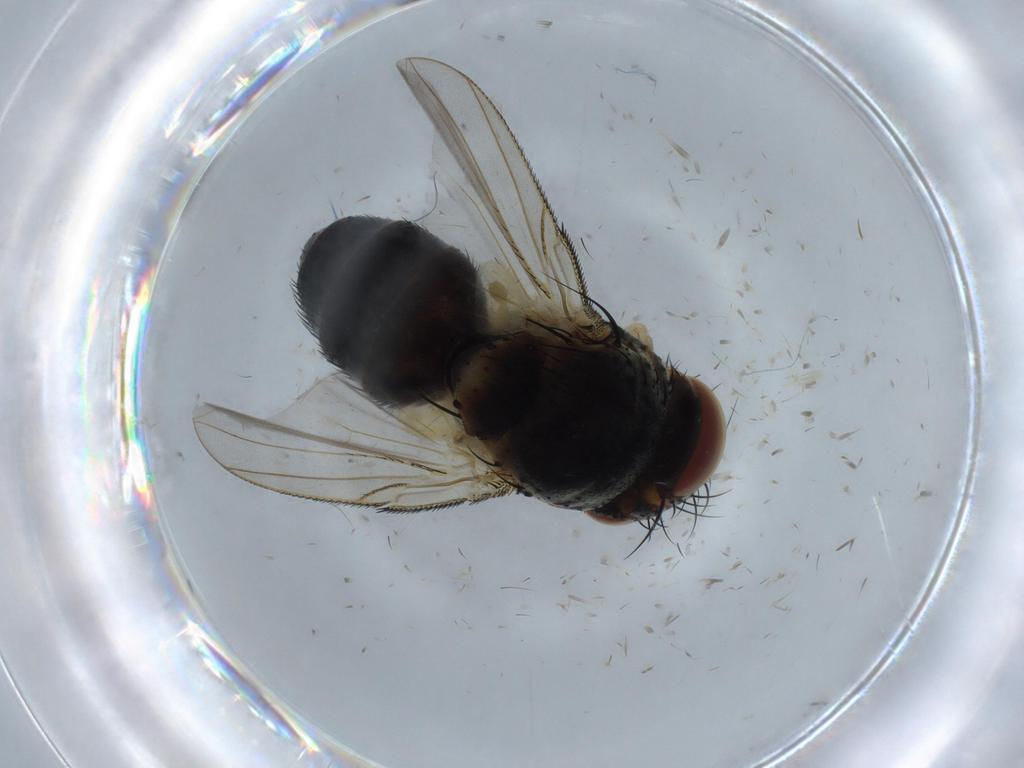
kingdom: Animalia
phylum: Arthropoda
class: Insecta
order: Diptera
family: Tachinidae
